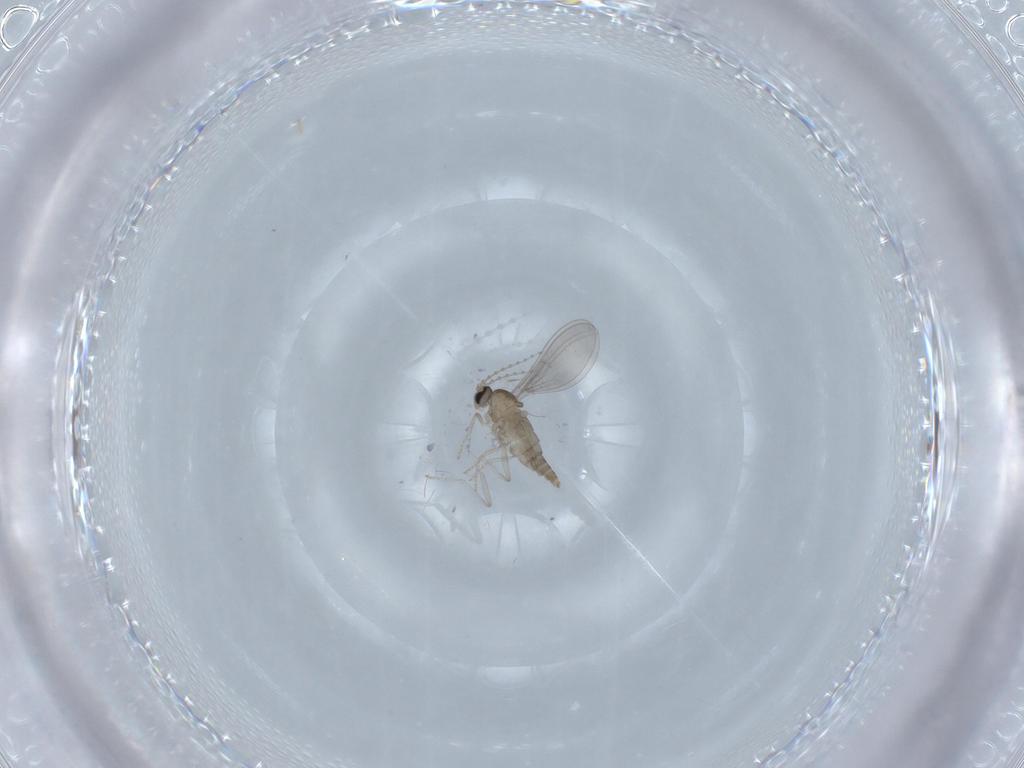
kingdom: Animalia
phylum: Arthropoda
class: Insecta
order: Diptera
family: Cecidomyiidae
